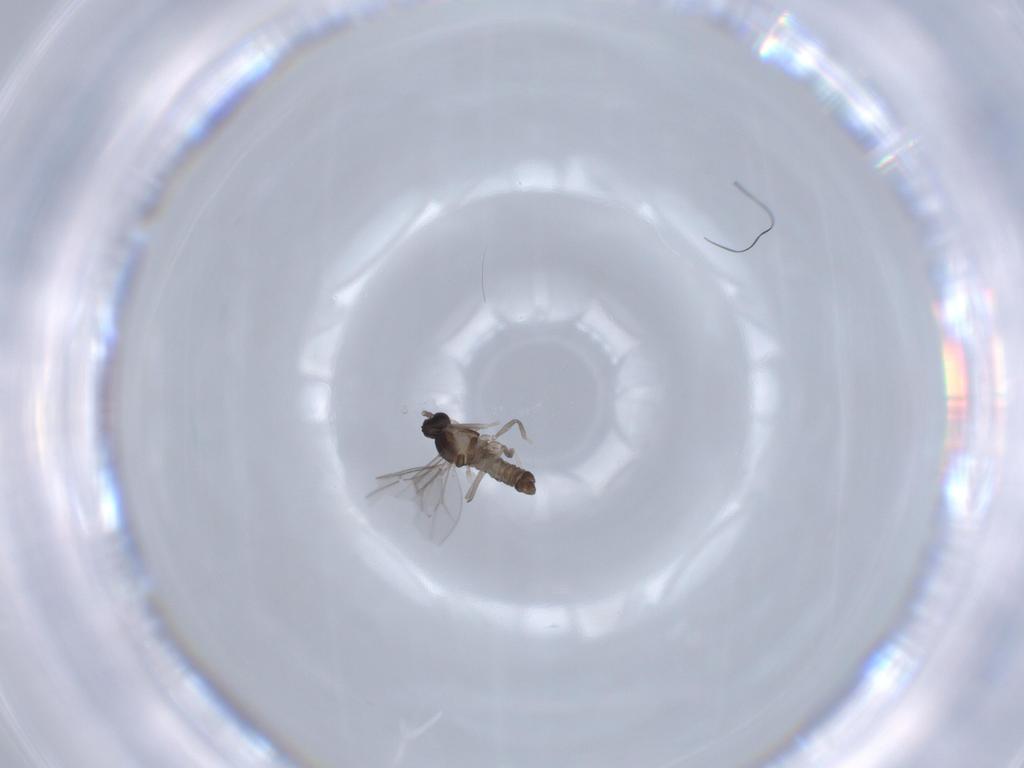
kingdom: Animalia
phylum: Arthropoda
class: Insecta
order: Diptera
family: Cecidomyiidae
